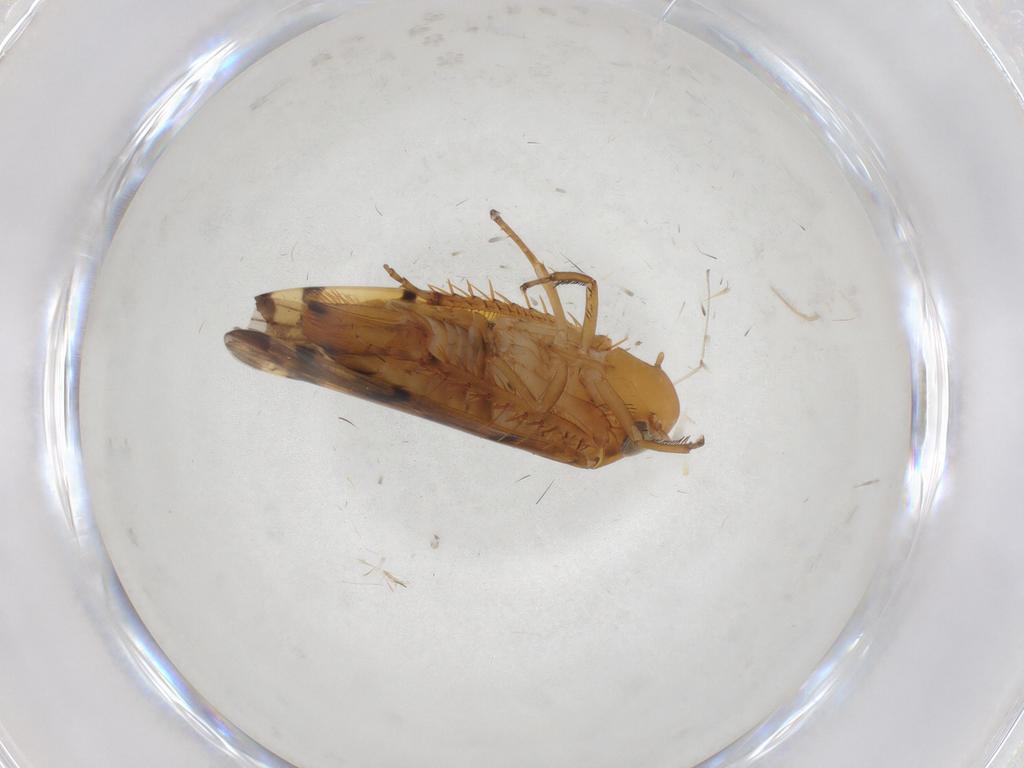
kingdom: Animalia
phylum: Arthropoda
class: Insecta
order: Hemiptera
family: Cicadellidae
